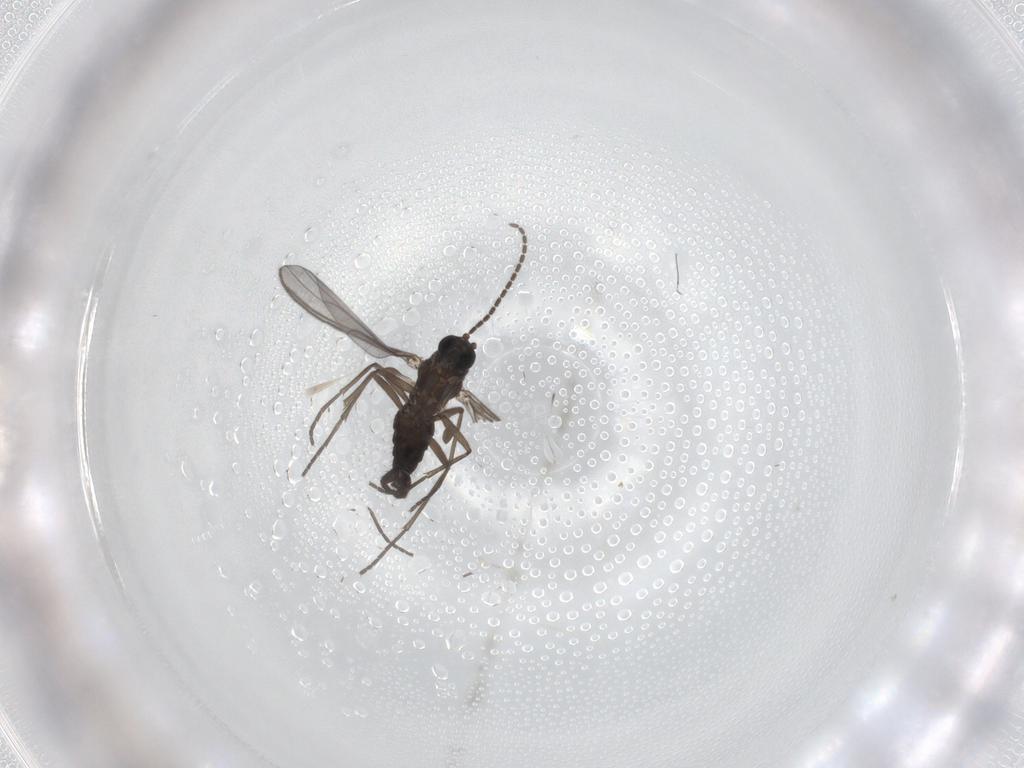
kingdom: Animalia
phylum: Arthropoda
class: Insecta
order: Diptera
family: Sciaridae
